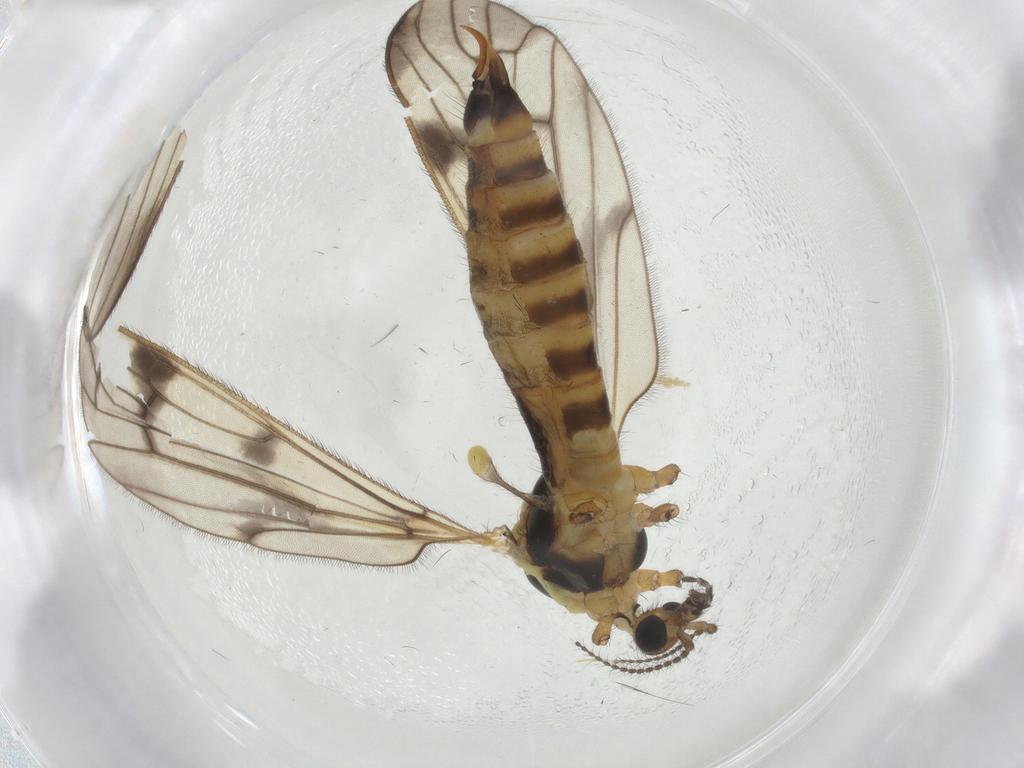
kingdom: Animalia
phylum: Arthropoda
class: Insecta
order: Diptera
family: Limoniidae
